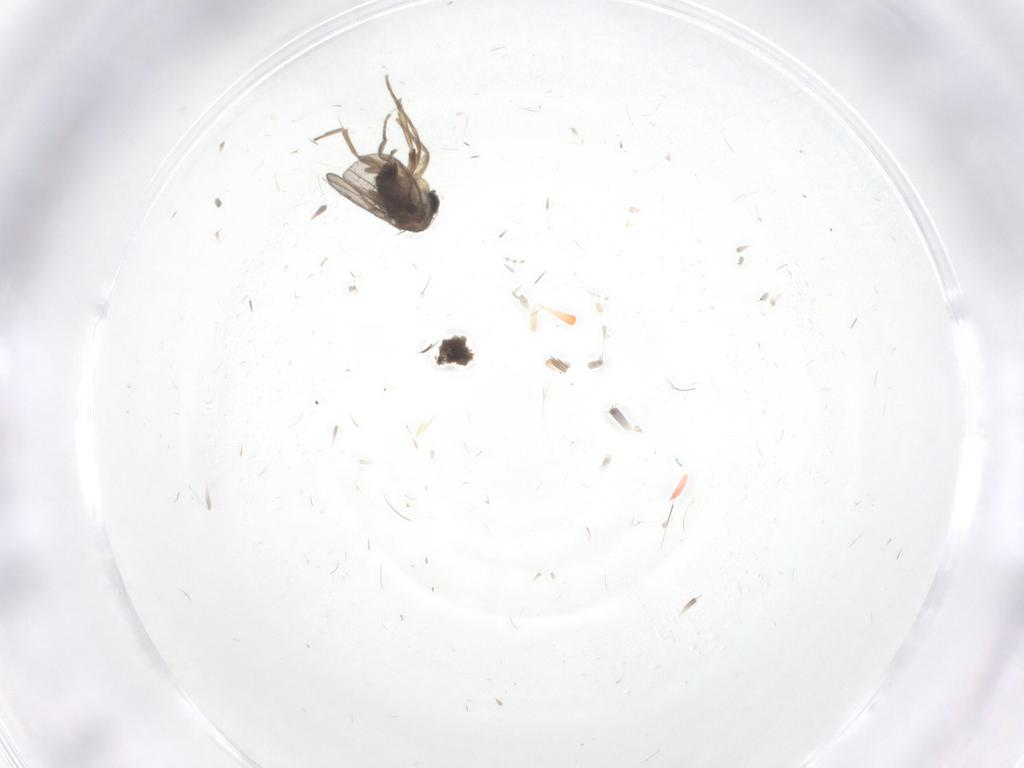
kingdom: Animalia
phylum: Arthropoda
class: Insecta
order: Diptera
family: Phoridae
